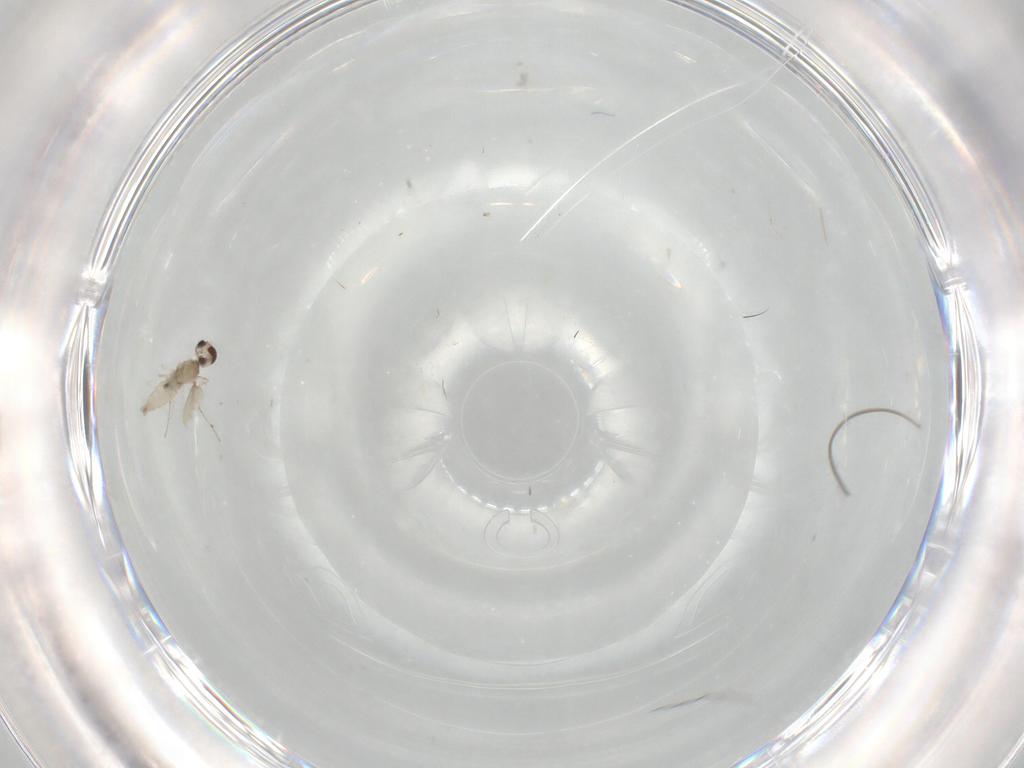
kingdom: Animalia
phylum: Arthropoda
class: Insecta
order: Diptera
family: Cecidomyiidae
